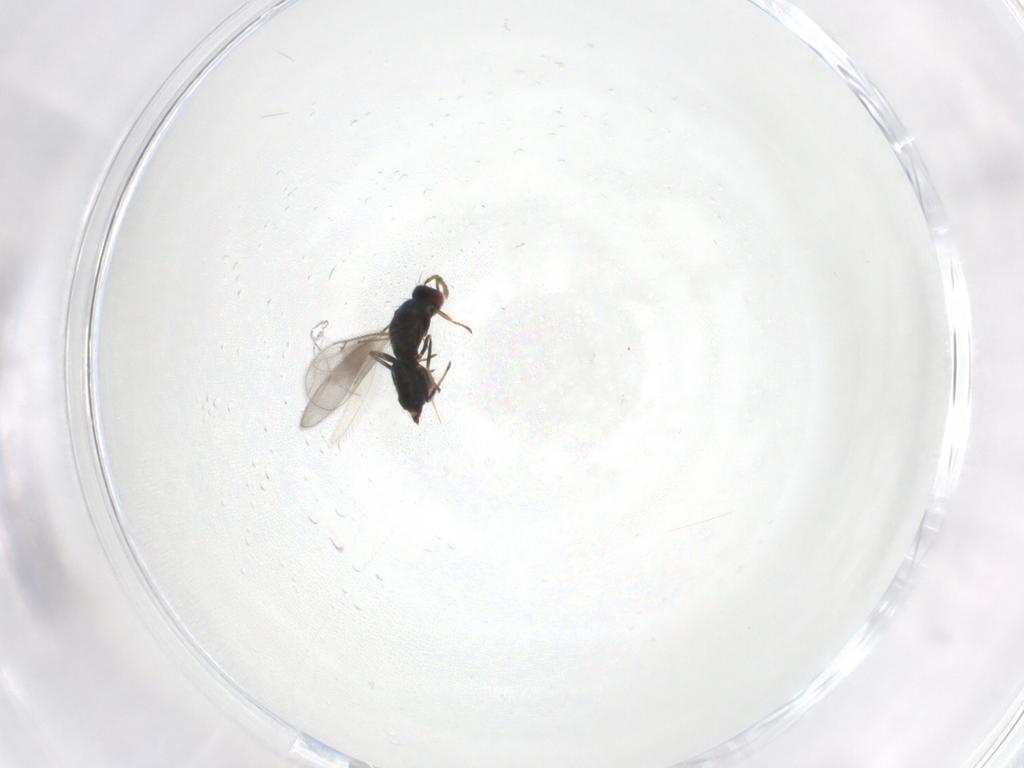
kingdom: Animalia
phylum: Arthropoda
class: Insecta
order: Hymenoptera
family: Eulophidae
